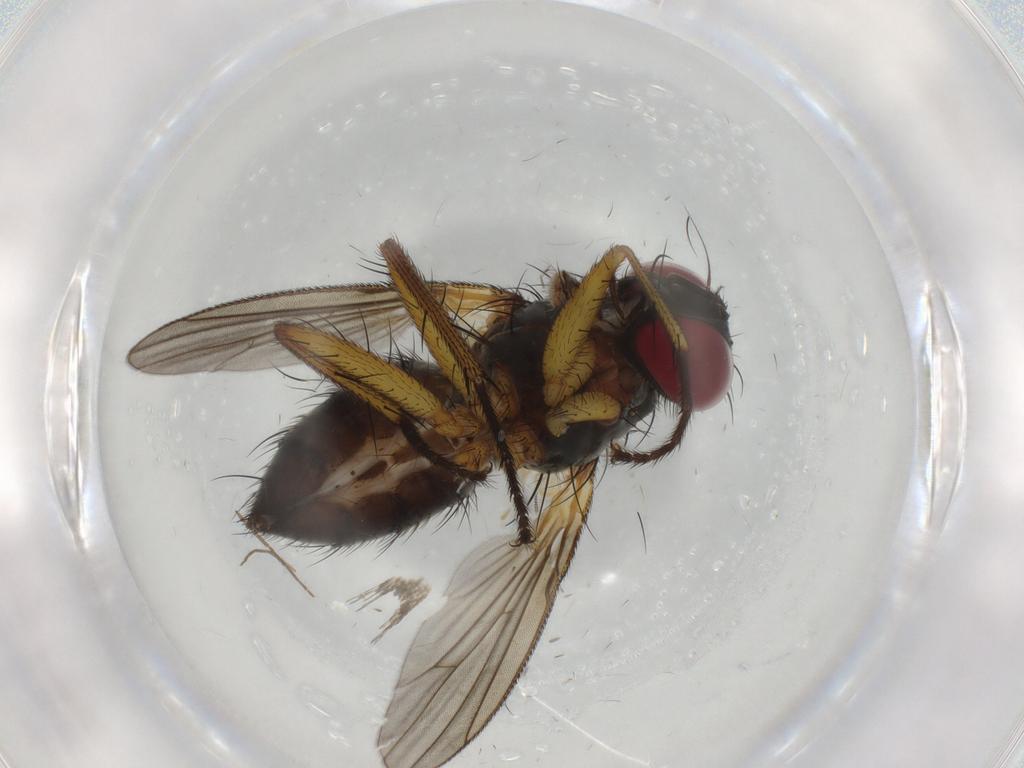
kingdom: Animalia
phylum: Arthropoda
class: Insecta
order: Diptera
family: Muscidae
